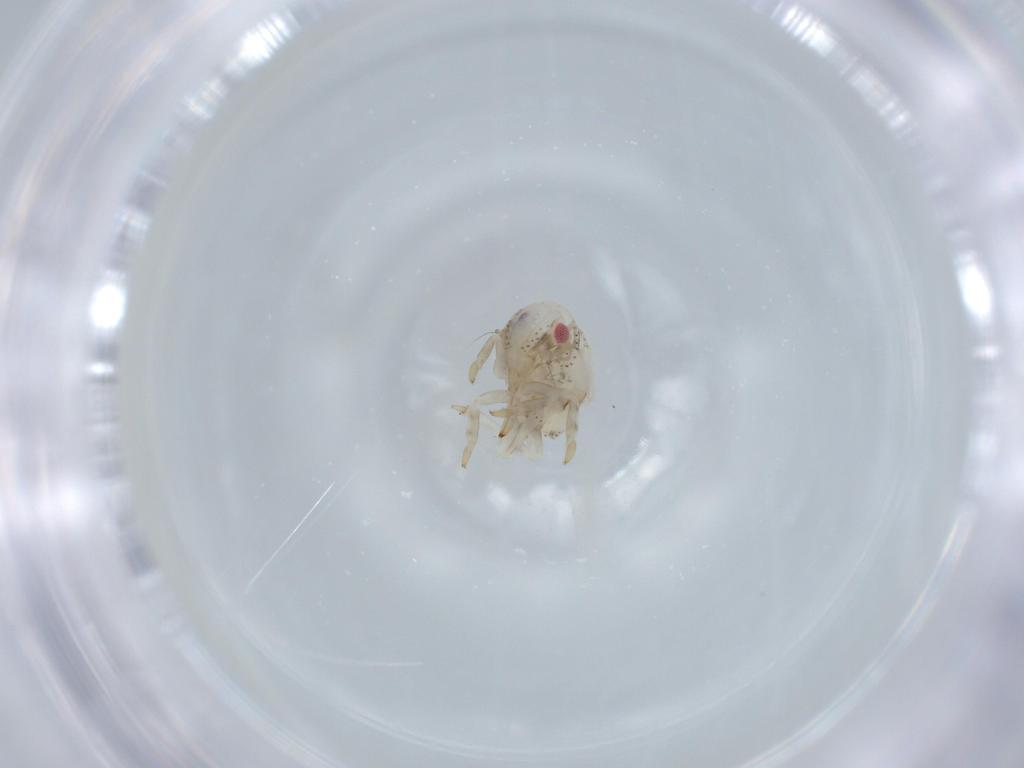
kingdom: Animalia
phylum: Arthropoda
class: Insecta
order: Hemiptera
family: Acanaloniidae
